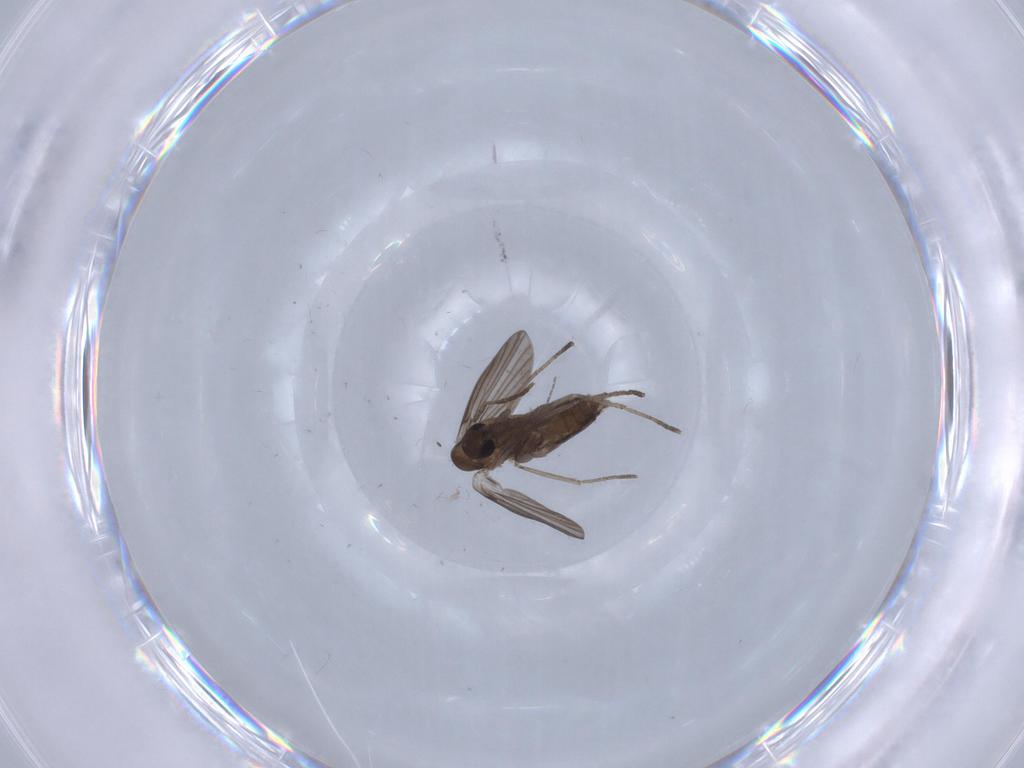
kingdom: Animalia
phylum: Arthropoda
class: Insecta
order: Diptera
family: Chironomidae
